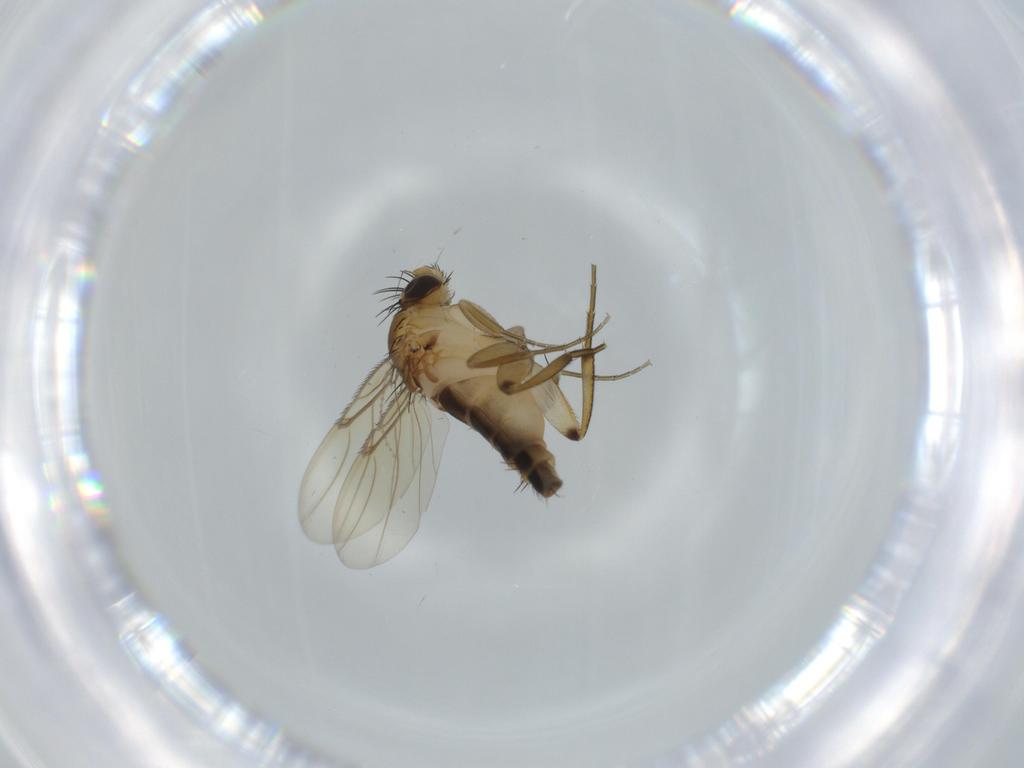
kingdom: Animalia
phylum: Arthropoda
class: Insecta
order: Diptera
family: Cecidomyiidae
